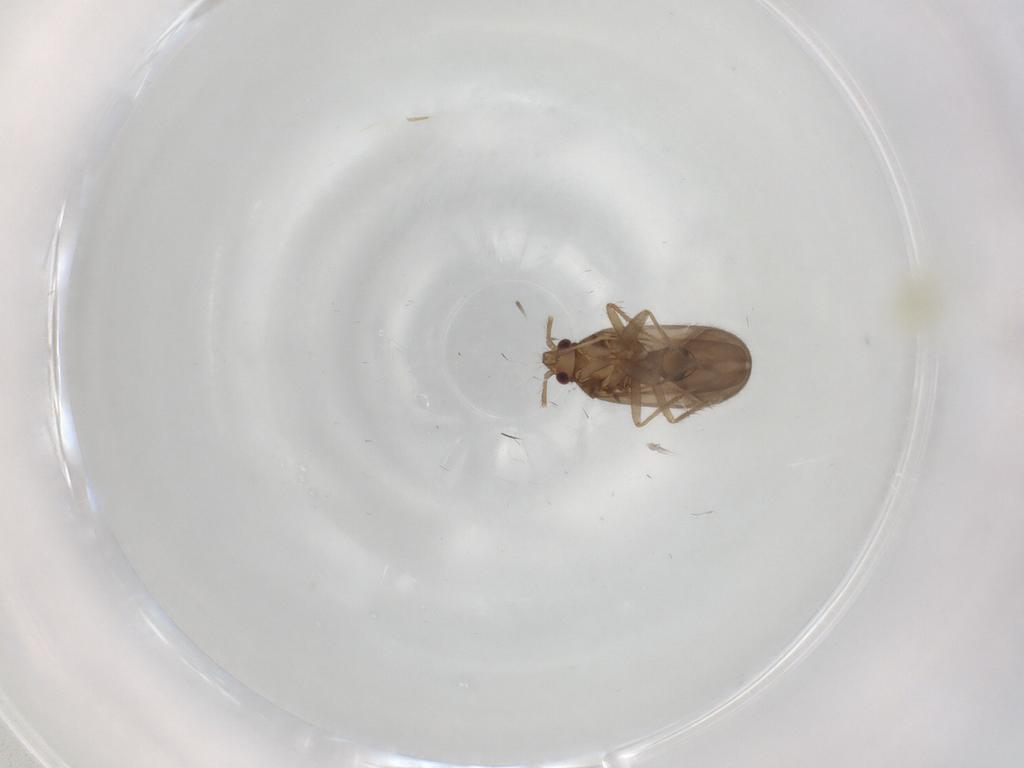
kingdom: Animalia
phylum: Arthropoda
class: Insecta
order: Hemiptera
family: Aleyrodidae
